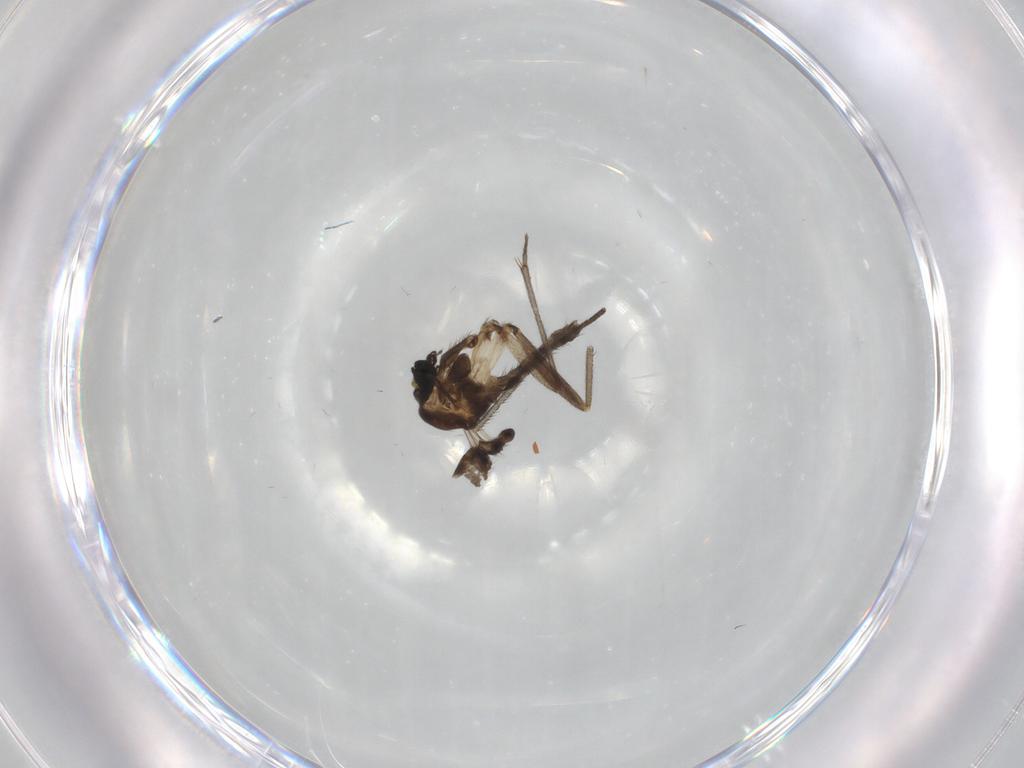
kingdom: Animalia
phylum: Arthropoda
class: Insecta
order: Diptera
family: Sciaridae
